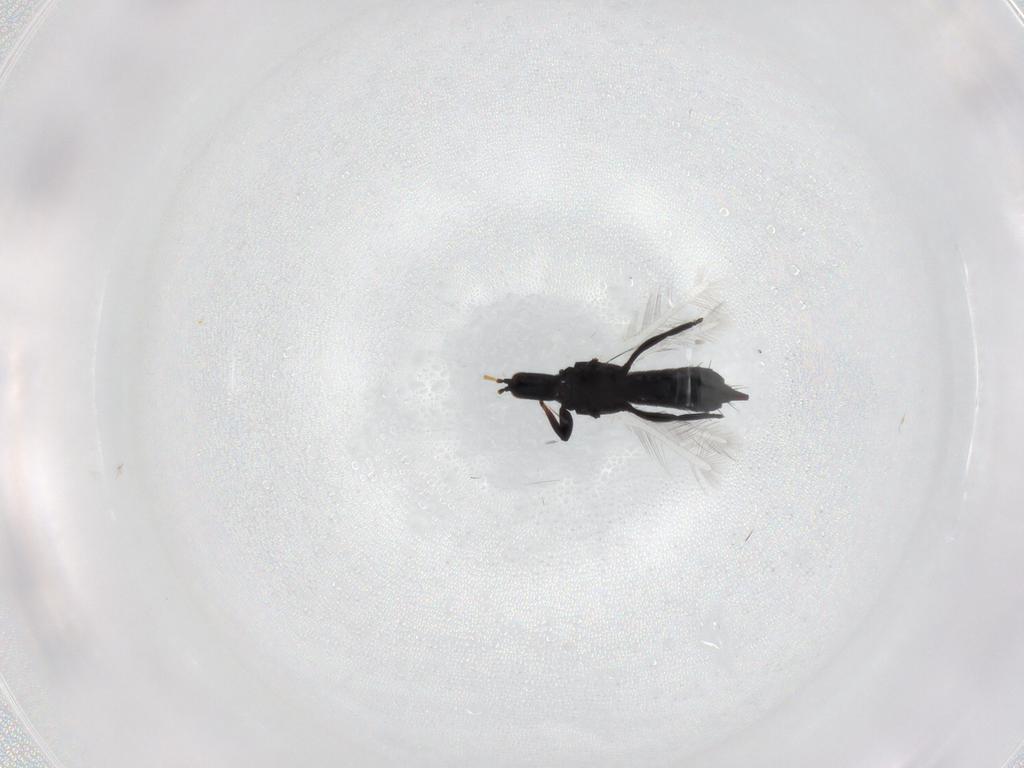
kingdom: Animalia
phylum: Arthropoda
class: Insecta
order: Thysanoptera
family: Phlaeothripidae
